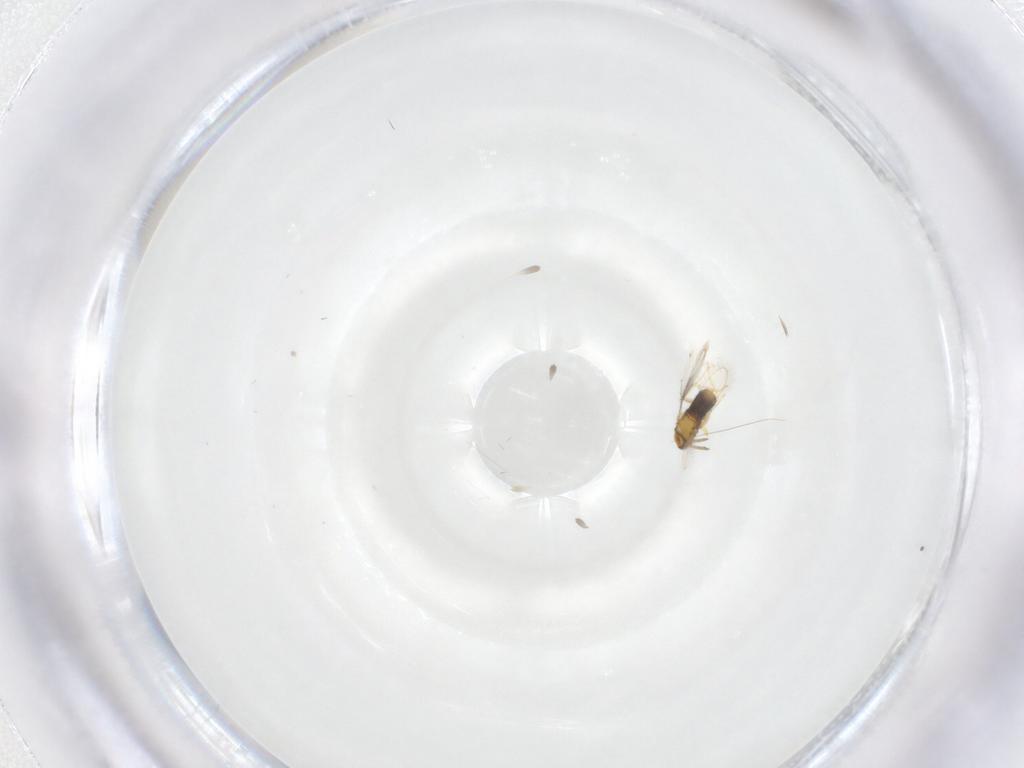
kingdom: Animalia
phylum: Arthropoda
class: Insecta
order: Hymenoptera
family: Aphelinidae
